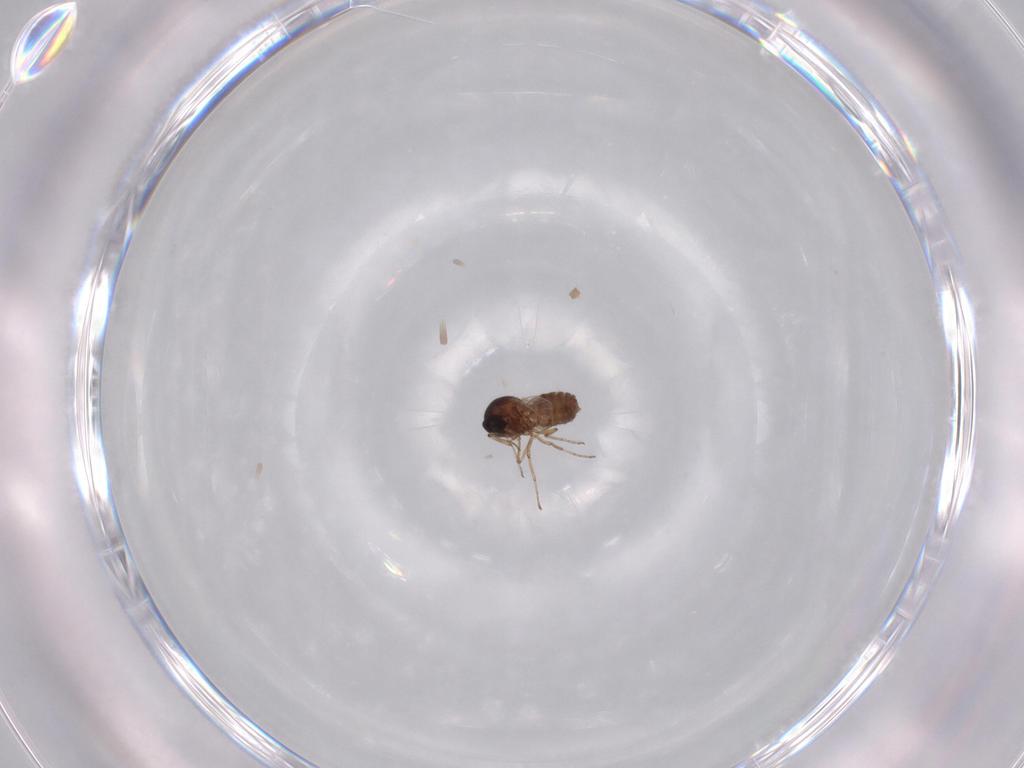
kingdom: Animalia
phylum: Arthropoda
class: Insecta
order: Diptera
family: Ceratopogonidae
